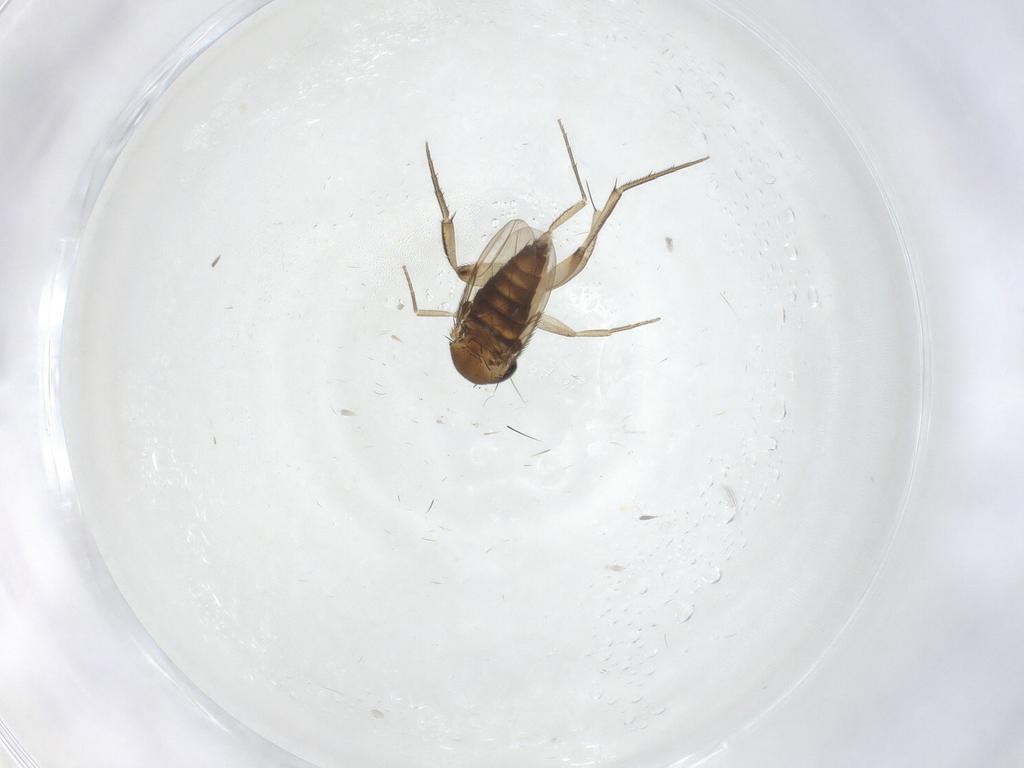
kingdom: Animalia
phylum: Arthropoda
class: Insecta
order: Diptera
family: Phoridae
